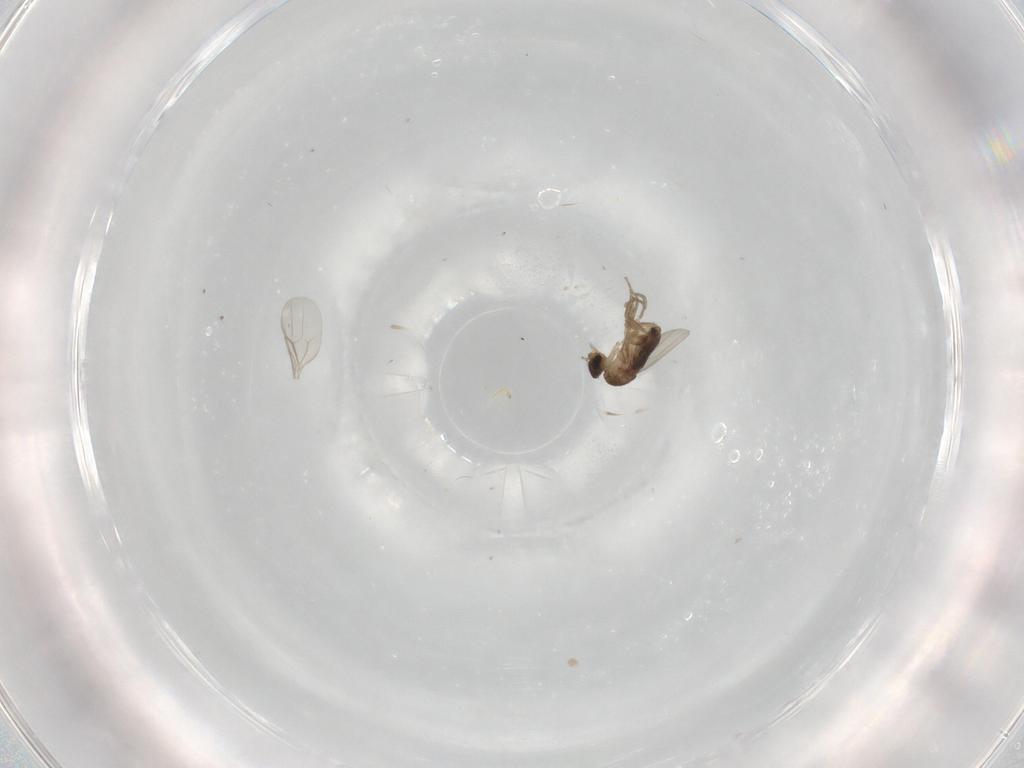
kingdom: Animalia
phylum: Arthropoda
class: Insecta
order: Diptera
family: Phoridae
